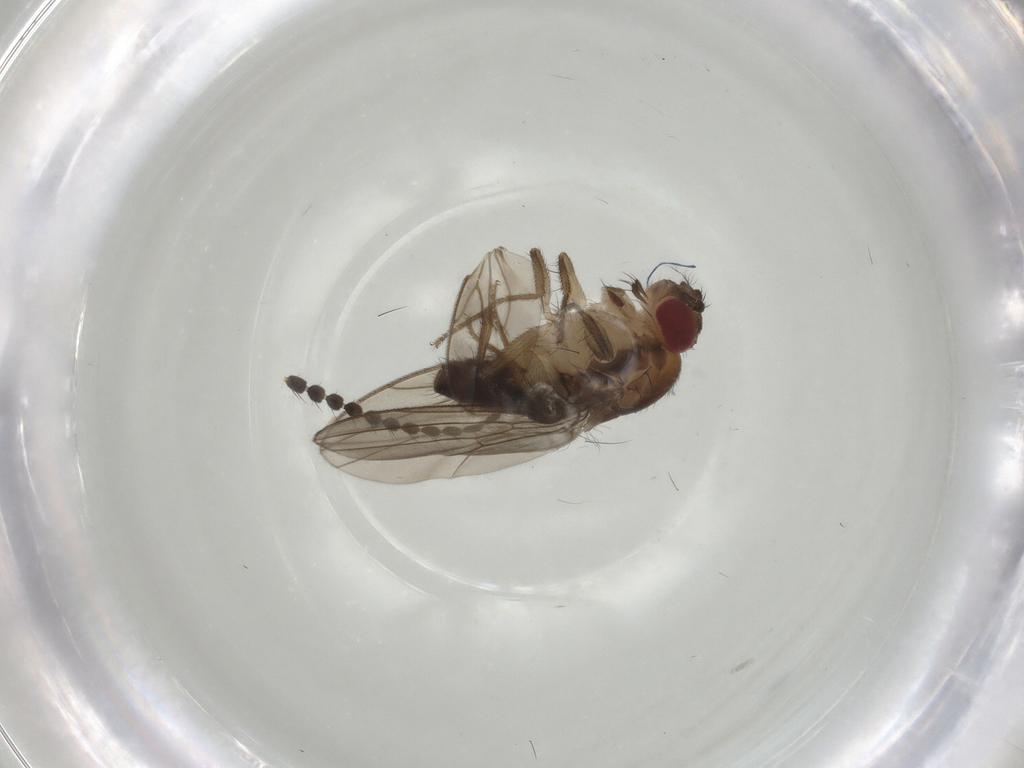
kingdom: Animalia
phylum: Arthropoda
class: Insecta
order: Diptera
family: Drosophilidae
